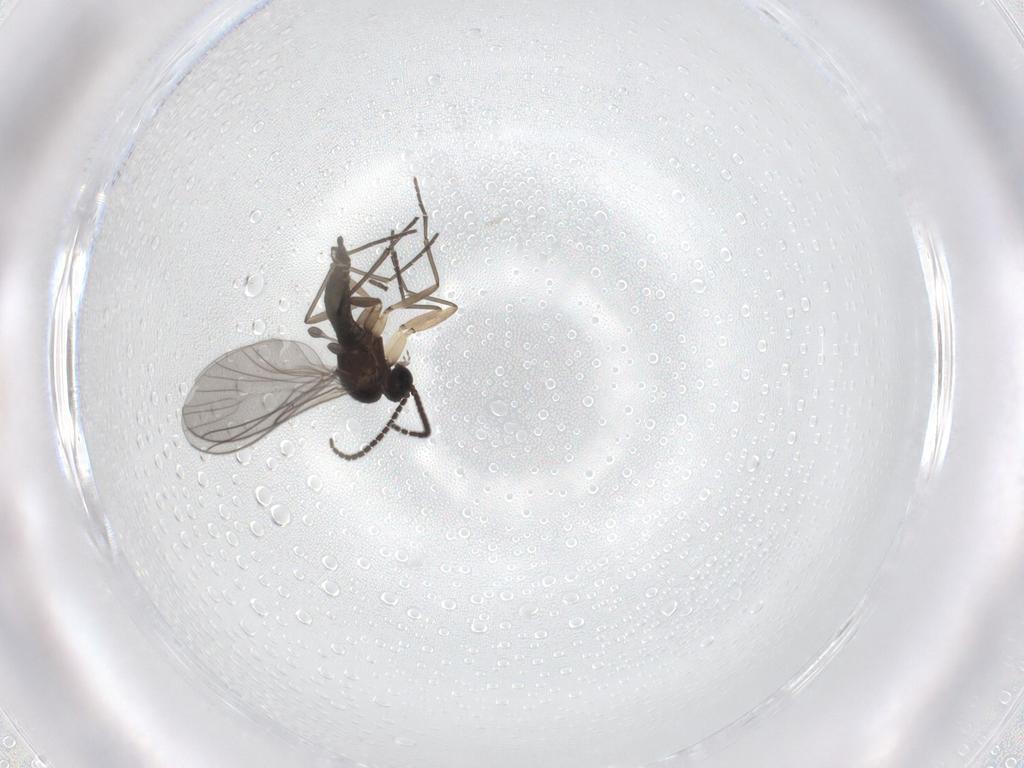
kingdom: Animalia
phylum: Arthropoda
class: Insecta
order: Diptera
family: Sciaridae
